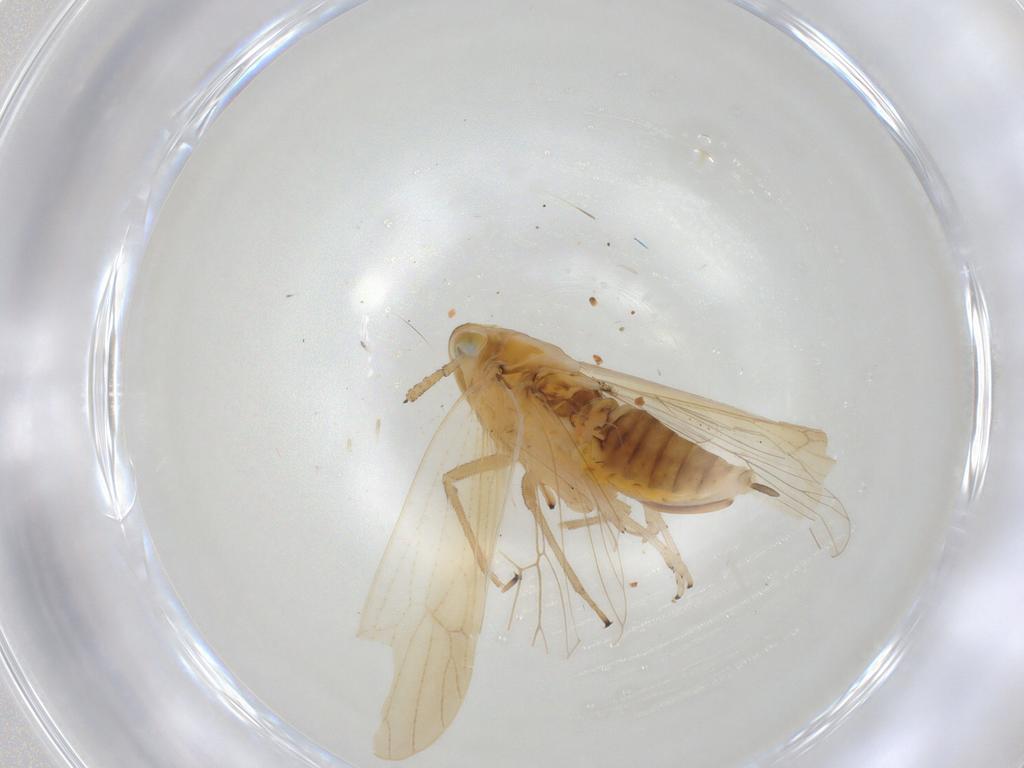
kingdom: Animalia
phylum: Arthropoda
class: Insecta
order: Hemiptera
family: Delphacidae
